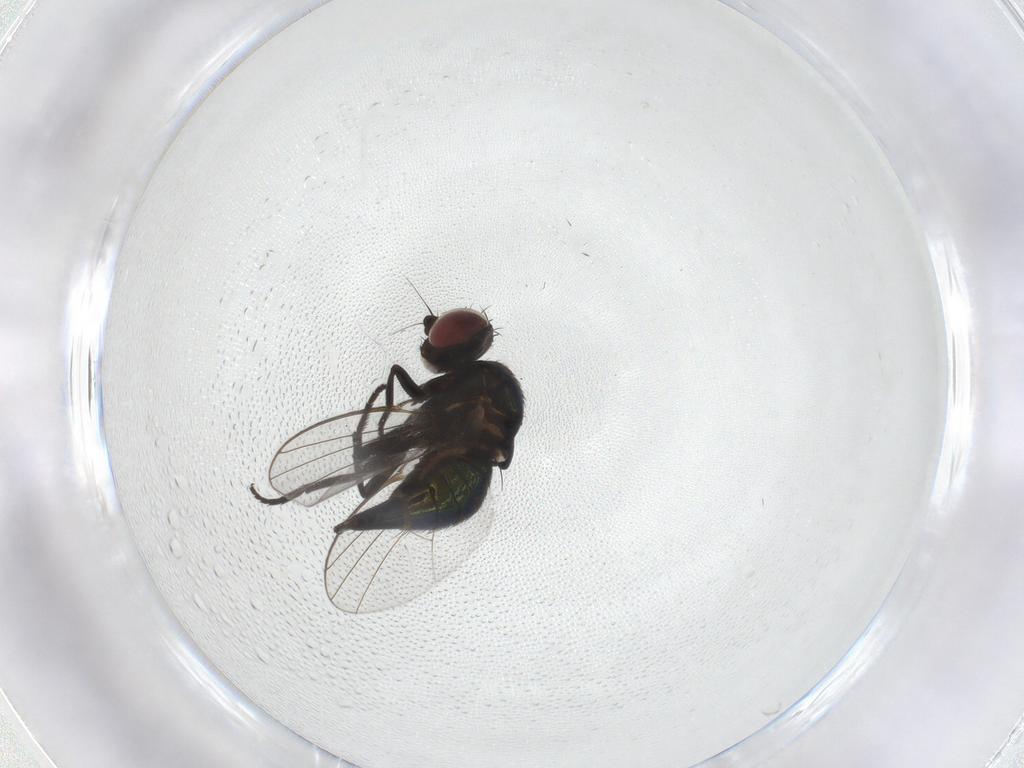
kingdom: Animalia
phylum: Arthropoda
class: Insecta
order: Diptera
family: Agromyzidae
